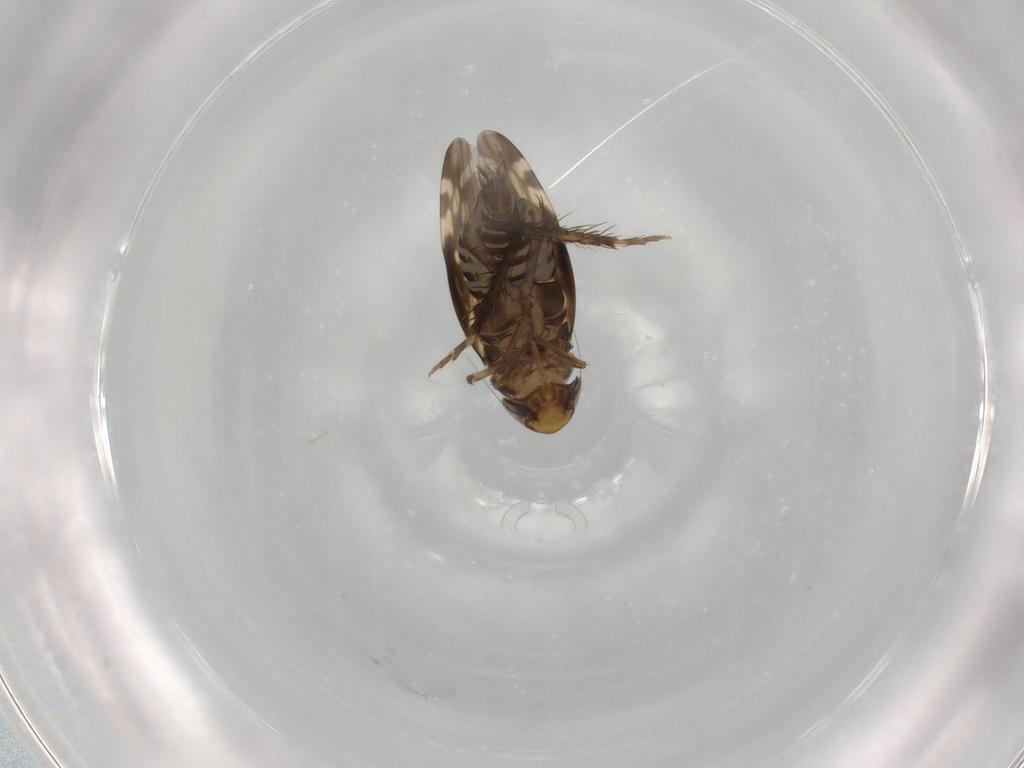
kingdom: Animalia
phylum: Arthropoda
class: Insecta
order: Hemiptera
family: Cicadellidae
